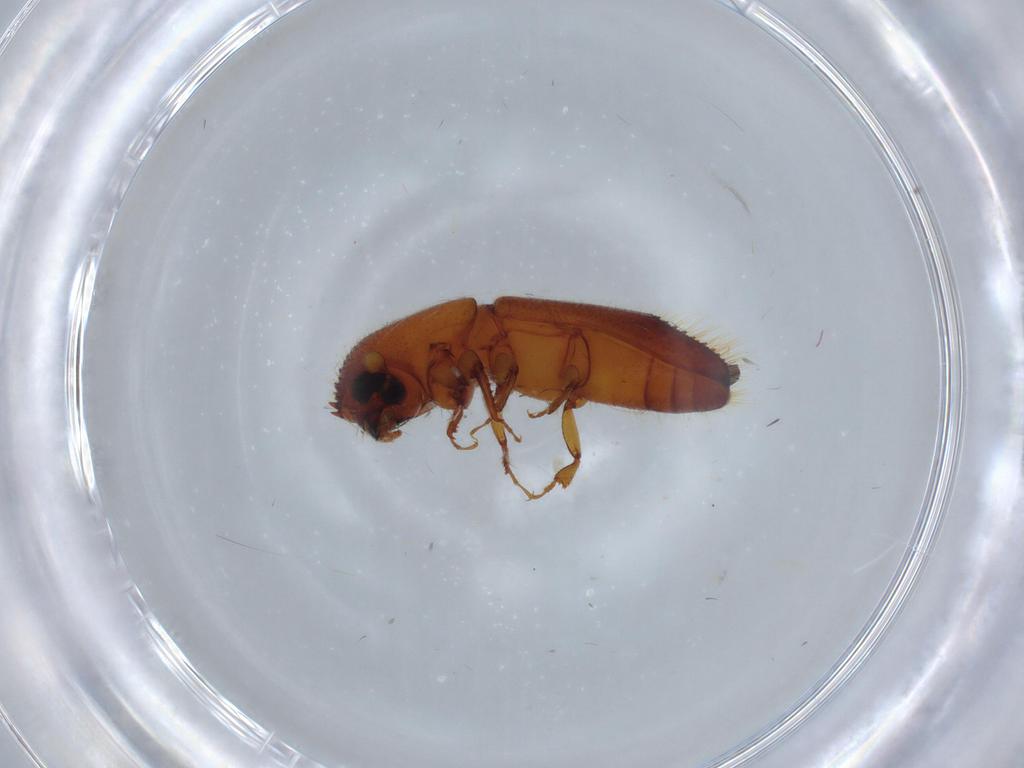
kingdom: Animalia
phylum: Arthropoda
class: Insecta
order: Coleoptera
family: Curculionidae
